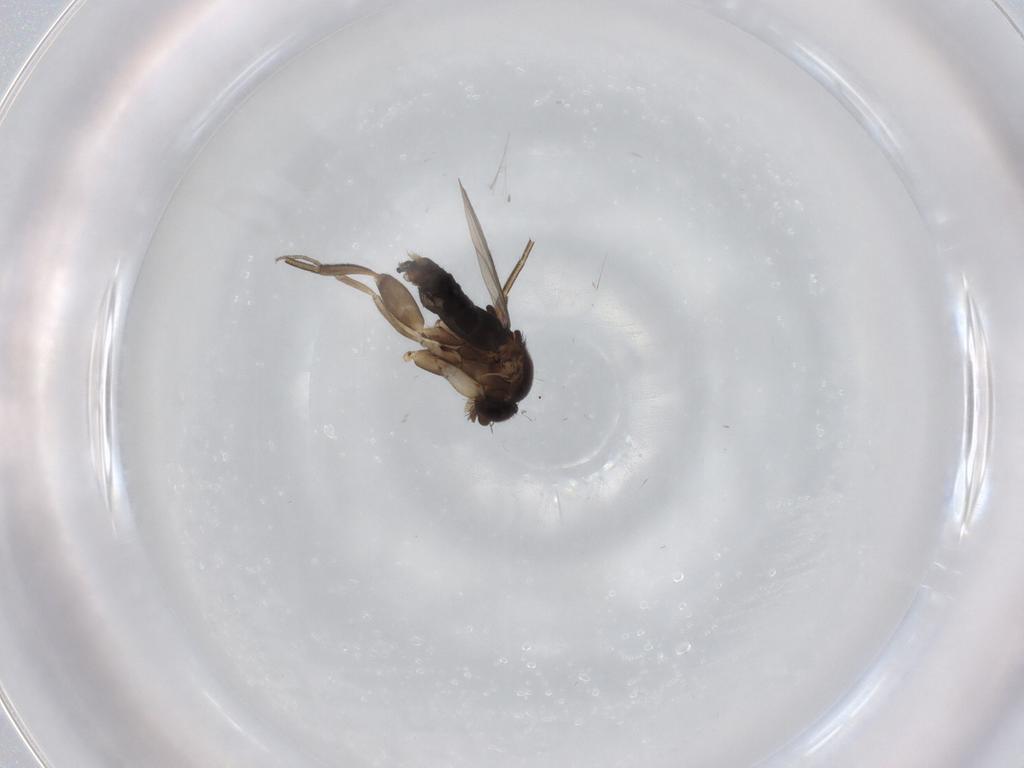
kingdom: Animalia
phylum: Arthropoda
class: Insecta
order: Diptera
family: Phoridae
